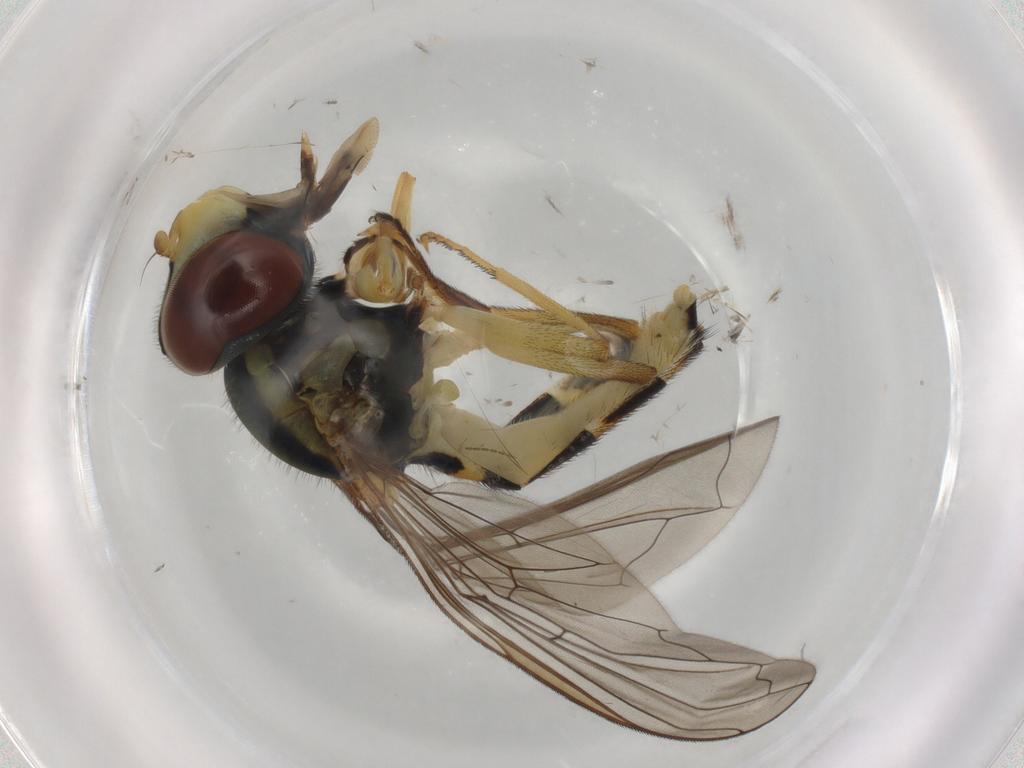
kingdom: Animalia
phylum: Arthropoda
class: Insecta
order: Diptera
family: Syrphidae
